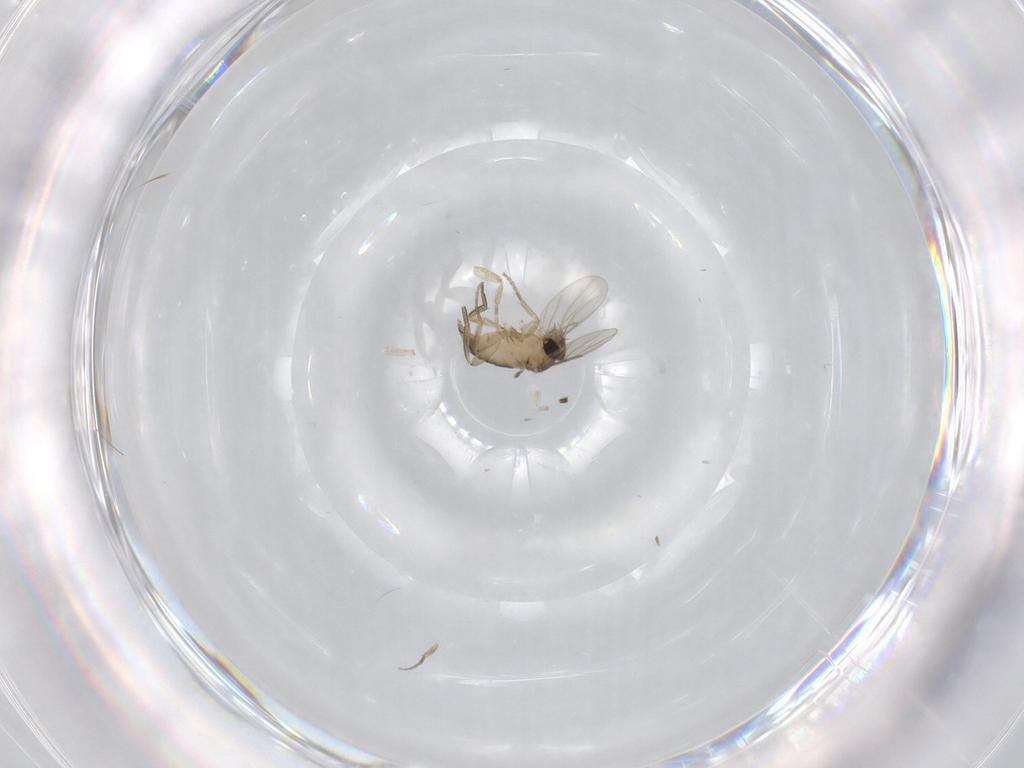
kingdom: Animalia
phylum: Arthropoda
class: Insecta
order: Diptera
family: Phoridae
